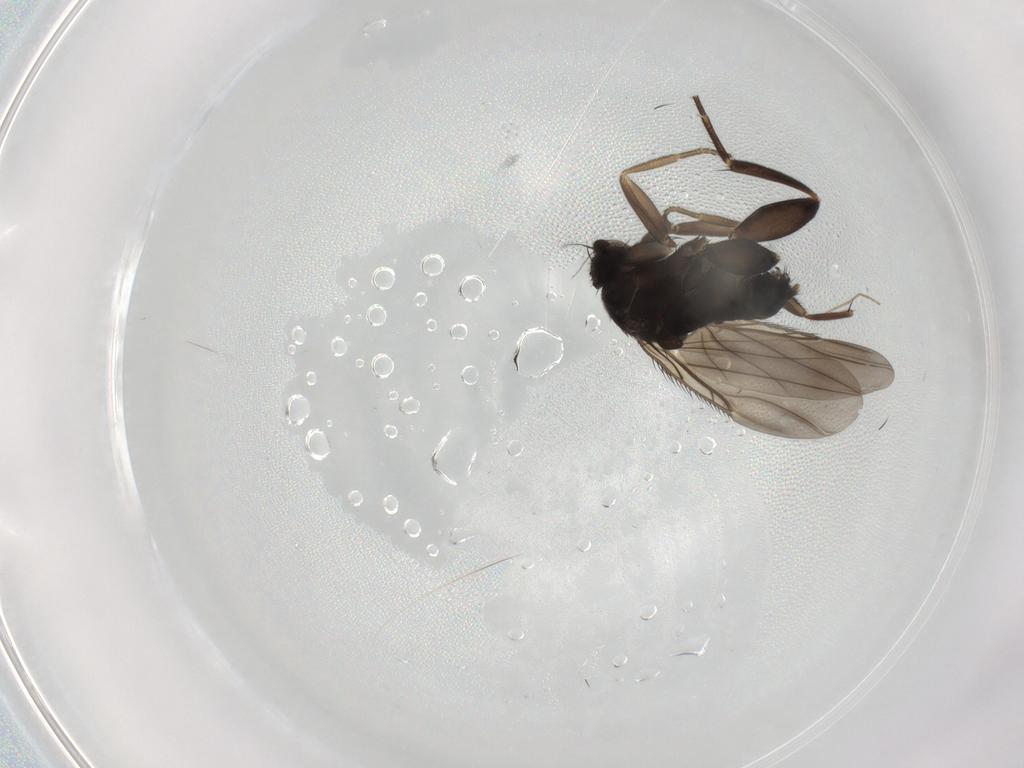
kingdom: Animalia
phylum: Arthropoda
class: Insecta
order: Diptera
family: Phoridae
